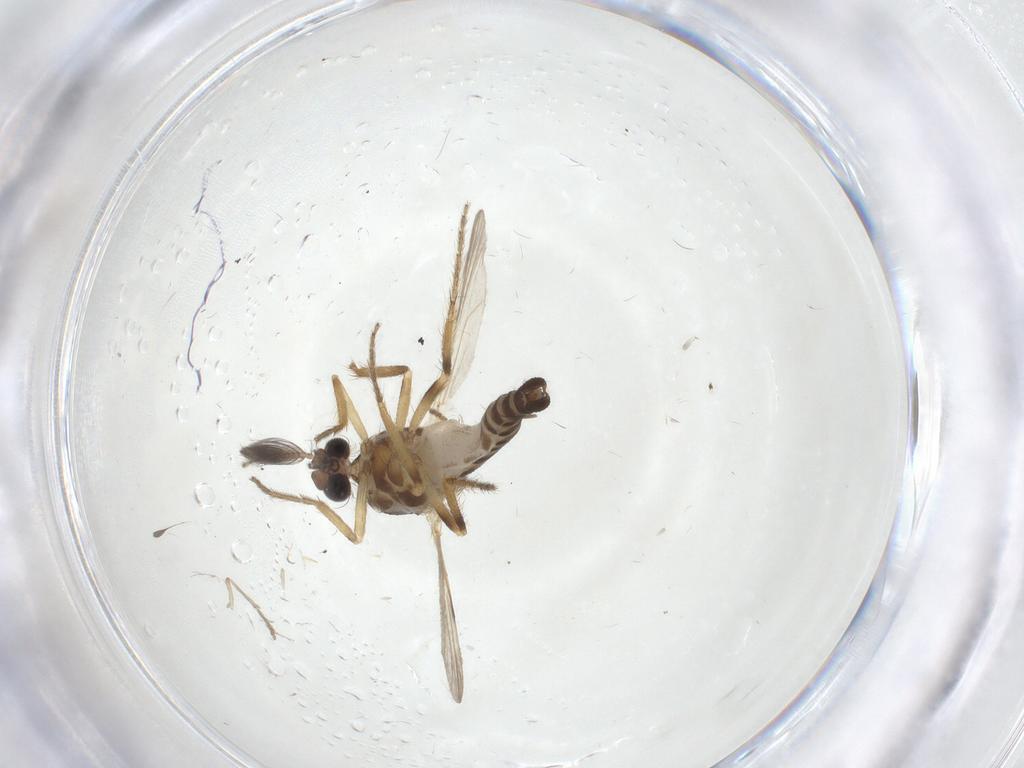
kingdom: Animalia
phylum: Arthropoda
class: Insecta
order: Diptera
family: Ceratopogonidae
